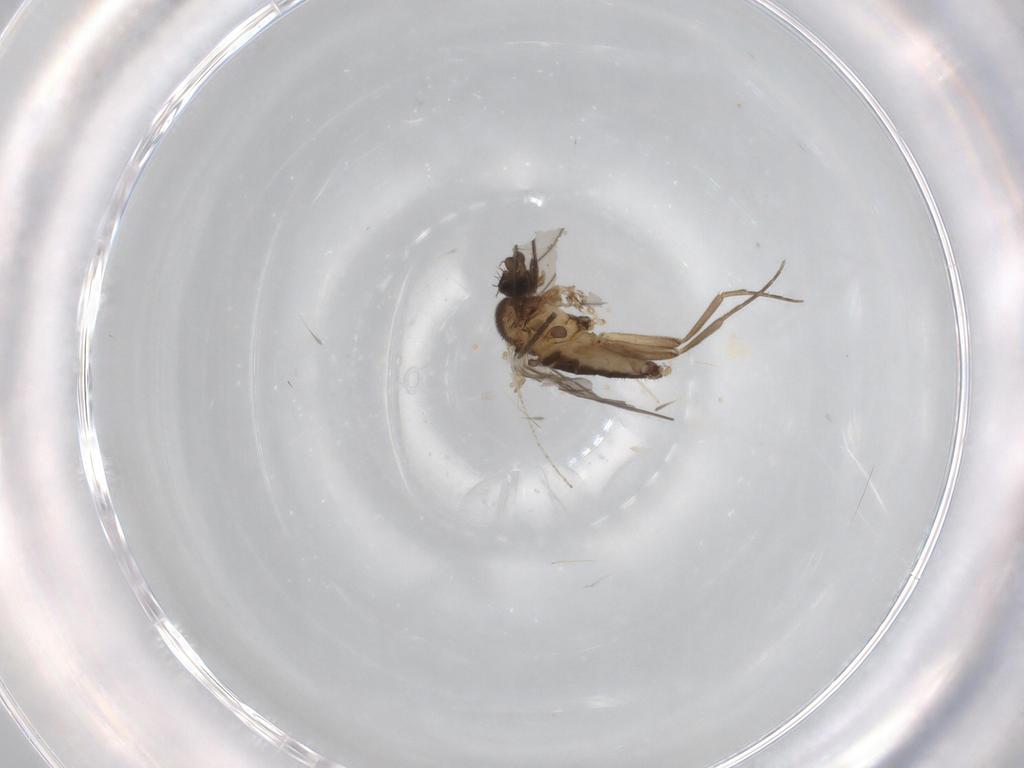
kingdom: Animalia
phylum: Arthropoda
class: Insecta
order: Diptera
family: Phoridae
